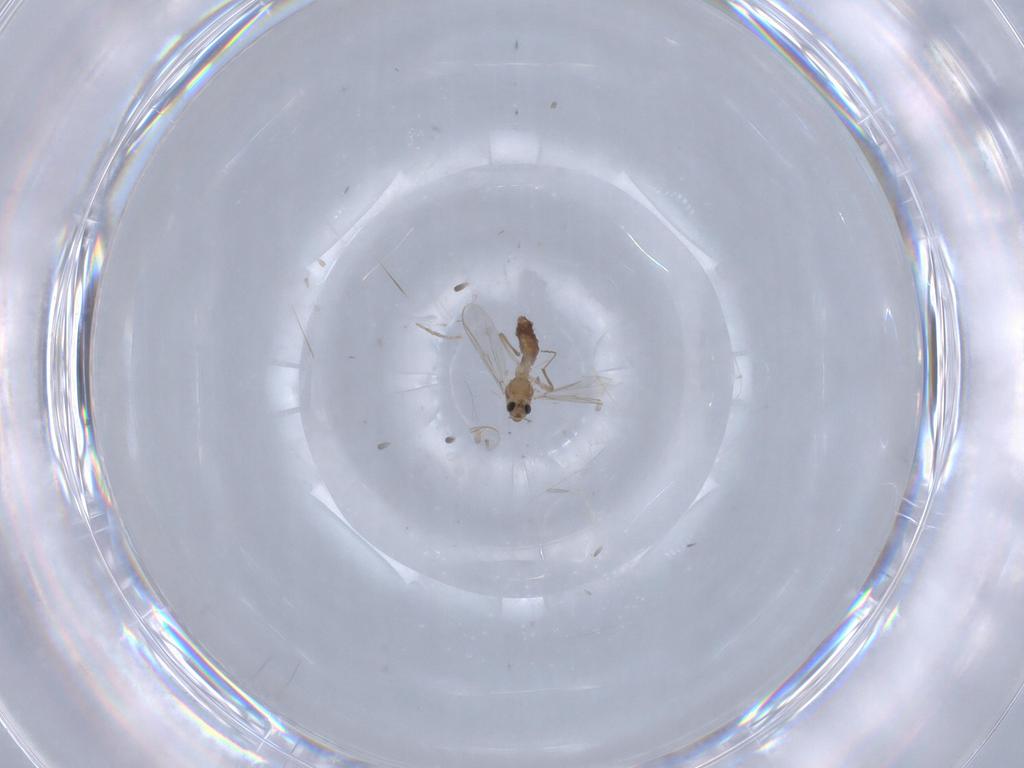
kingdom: Animalia
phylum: Arthropoda
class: Insecta
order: Diptera
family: Chironomidae
